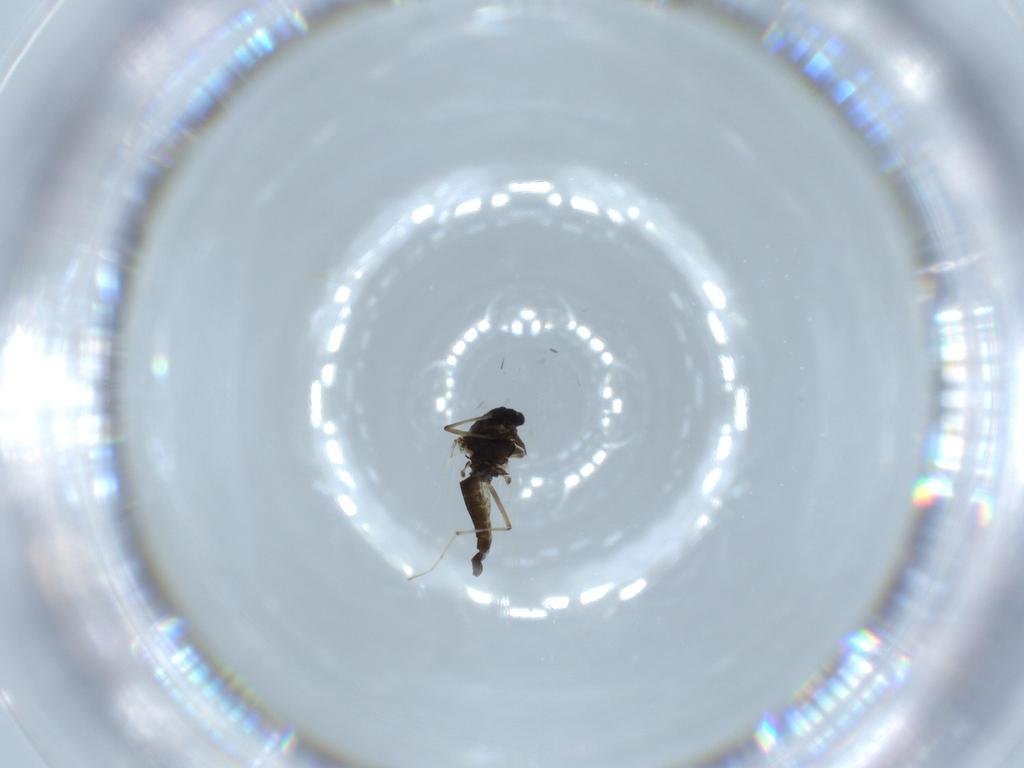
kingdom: Animalia
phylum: Arthropoda
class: Insecta
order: Diptera
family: Chironomidae
